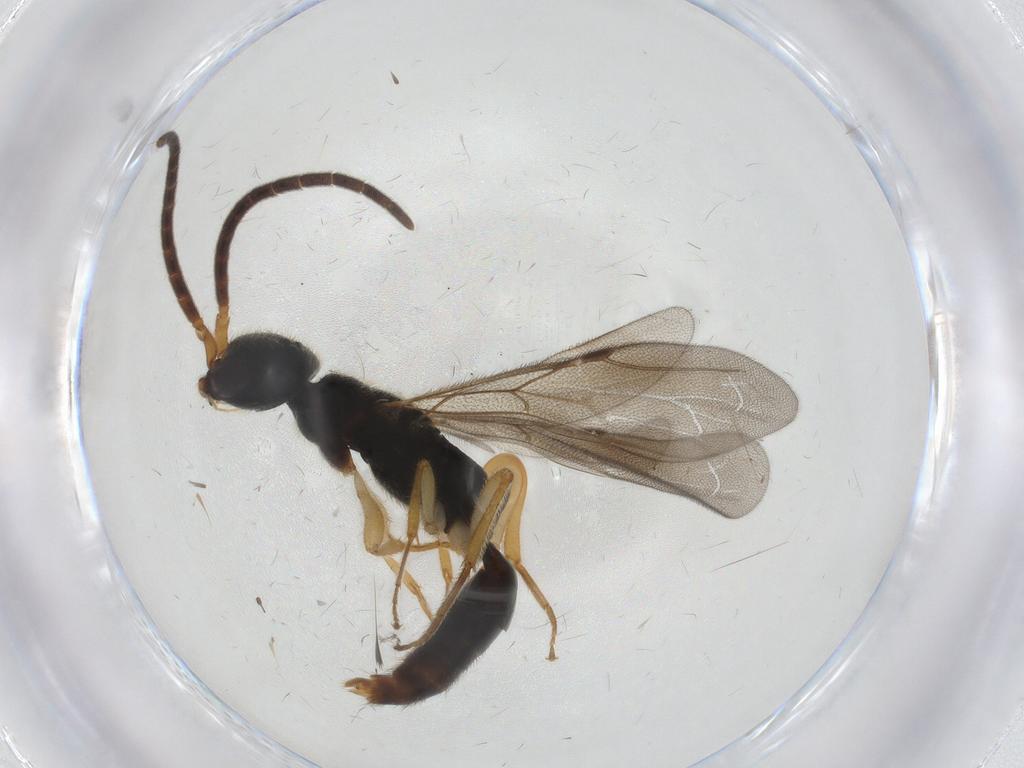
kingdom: Animalia
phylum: Arthropoda
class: Insecta
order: Hymenoptera
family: Bethylidae
